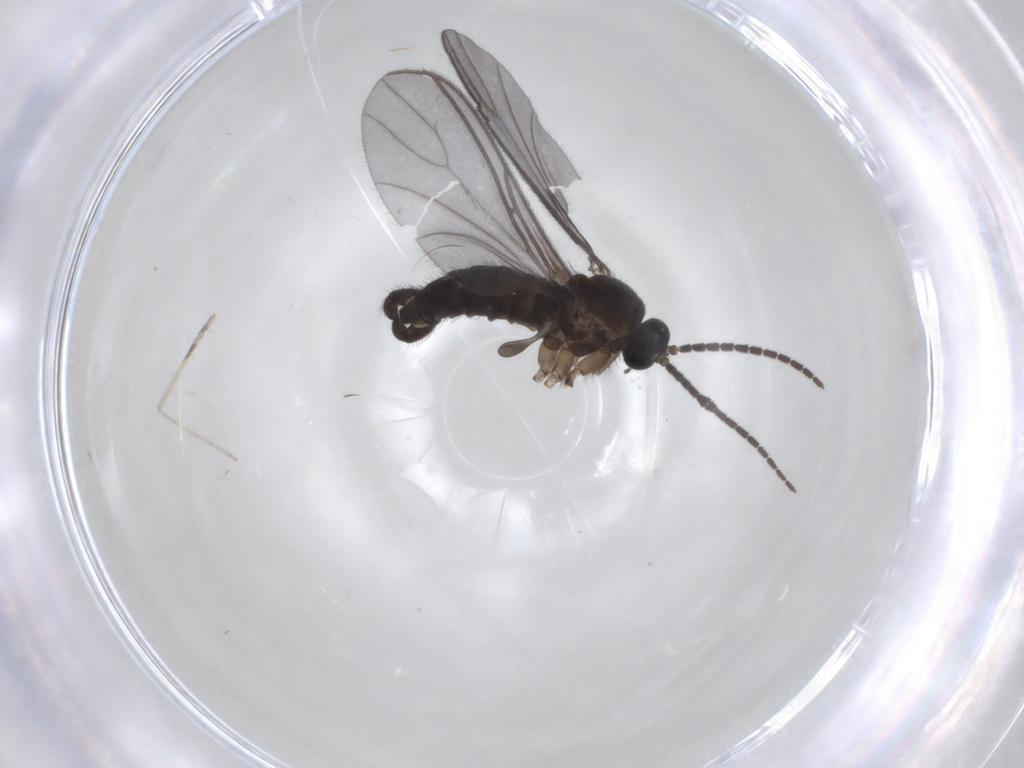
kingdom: Animalia
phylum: Arthropoda
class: Insecta
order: Diptera
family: Sciaridae
